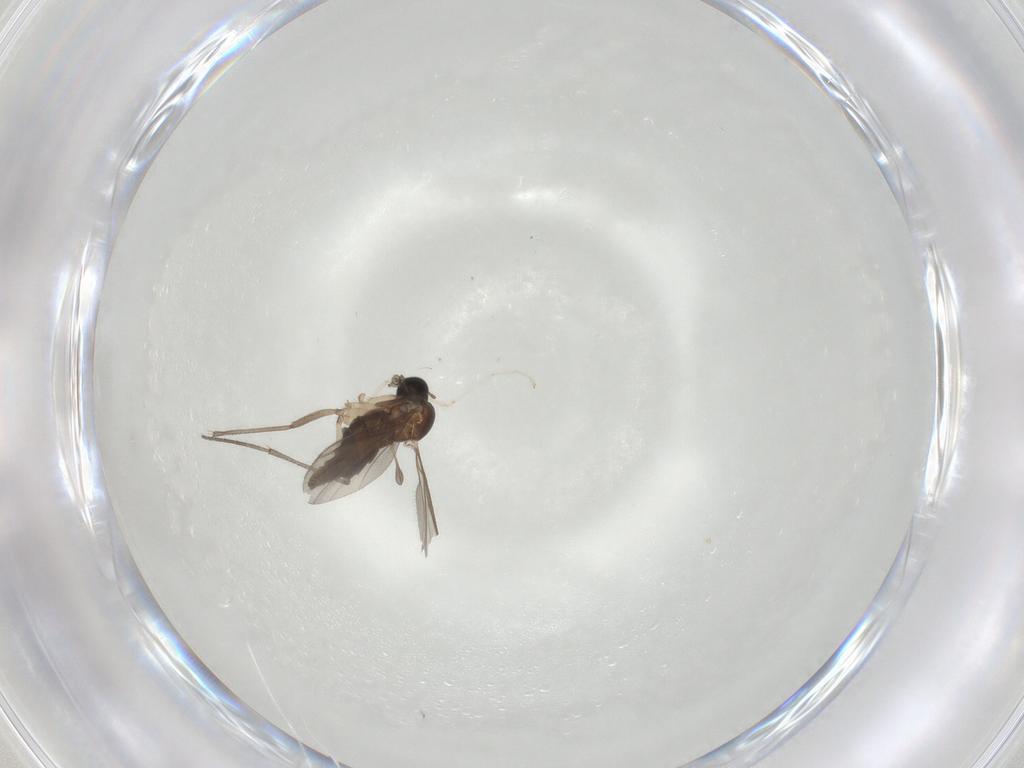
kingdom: Animalia
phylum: Arthropoda
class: Insecta
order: Diptera
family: Sciaridae
